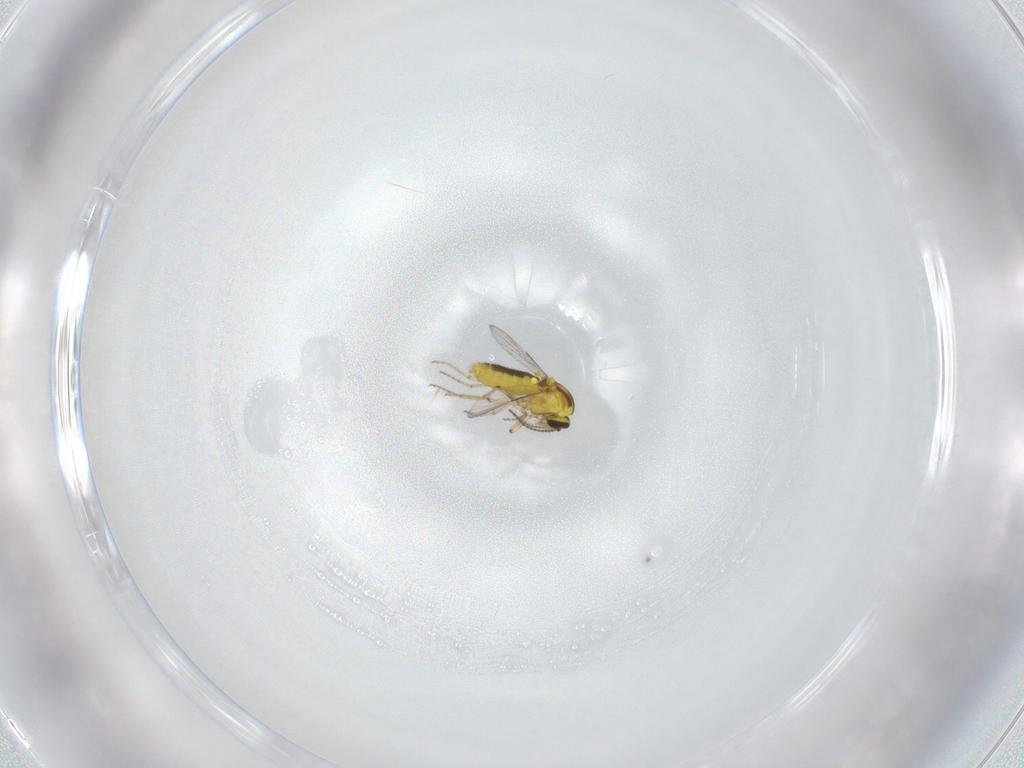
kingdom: Animalia
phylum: Arthropoda
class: Insecta
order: Diptera
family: Ceratopogonidae
